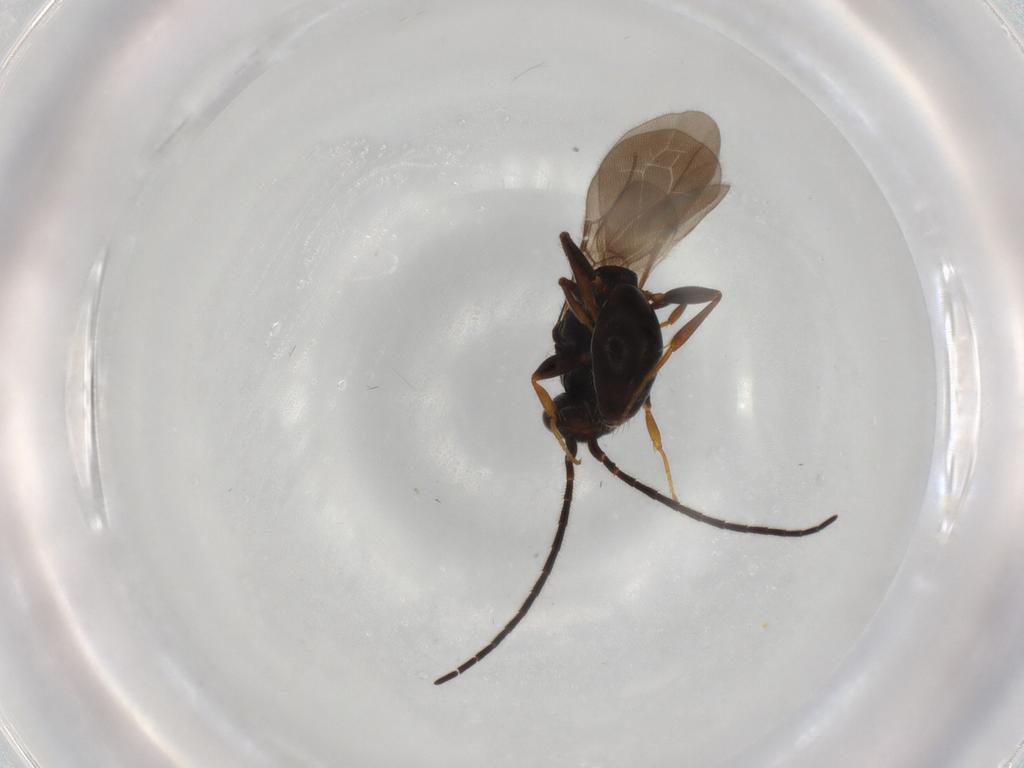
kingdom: Animalia
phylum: Arthropoda
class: Insecta
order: Hymenoptera
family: Bethylidae
